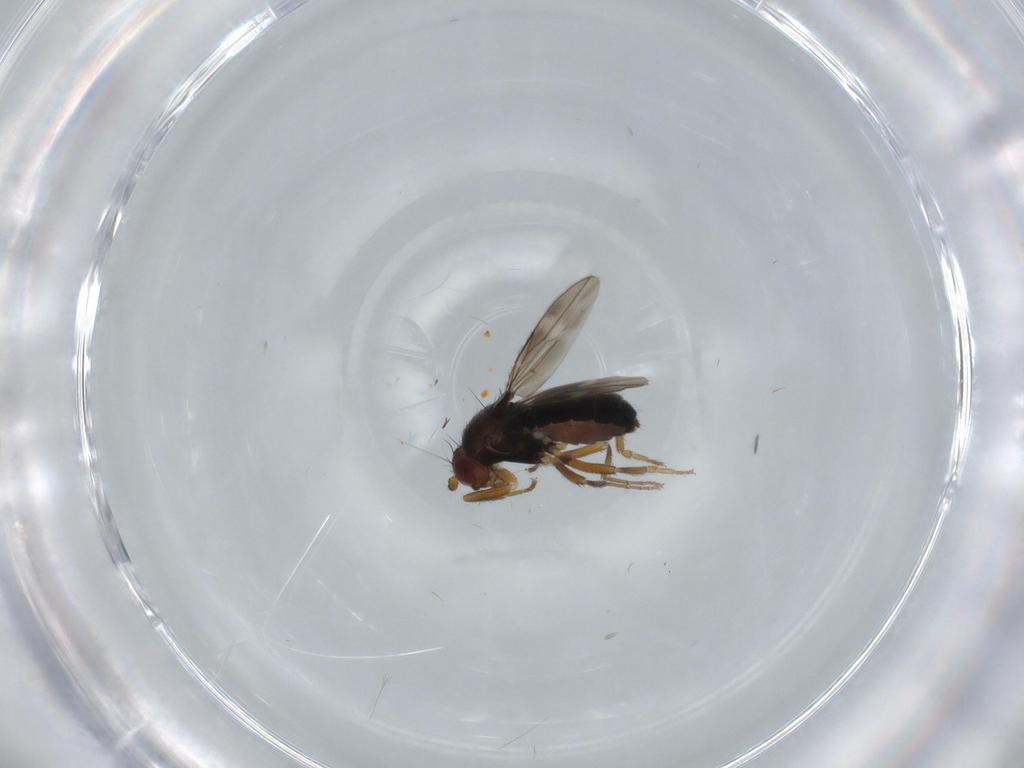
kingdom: Animalia
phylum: Arthropoda
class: Insecta
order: Diptera
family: Sphaeroceridae
